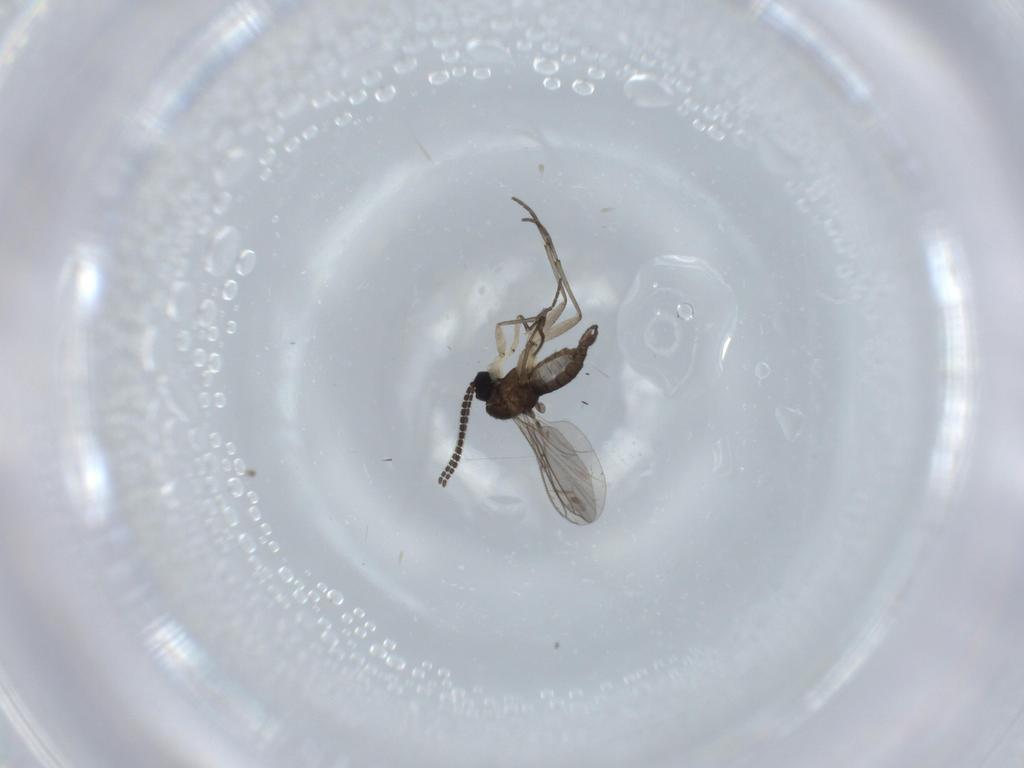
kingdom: Animalia
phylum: Arthropoda
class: Insecta
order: Diptera
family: Sciaridae
